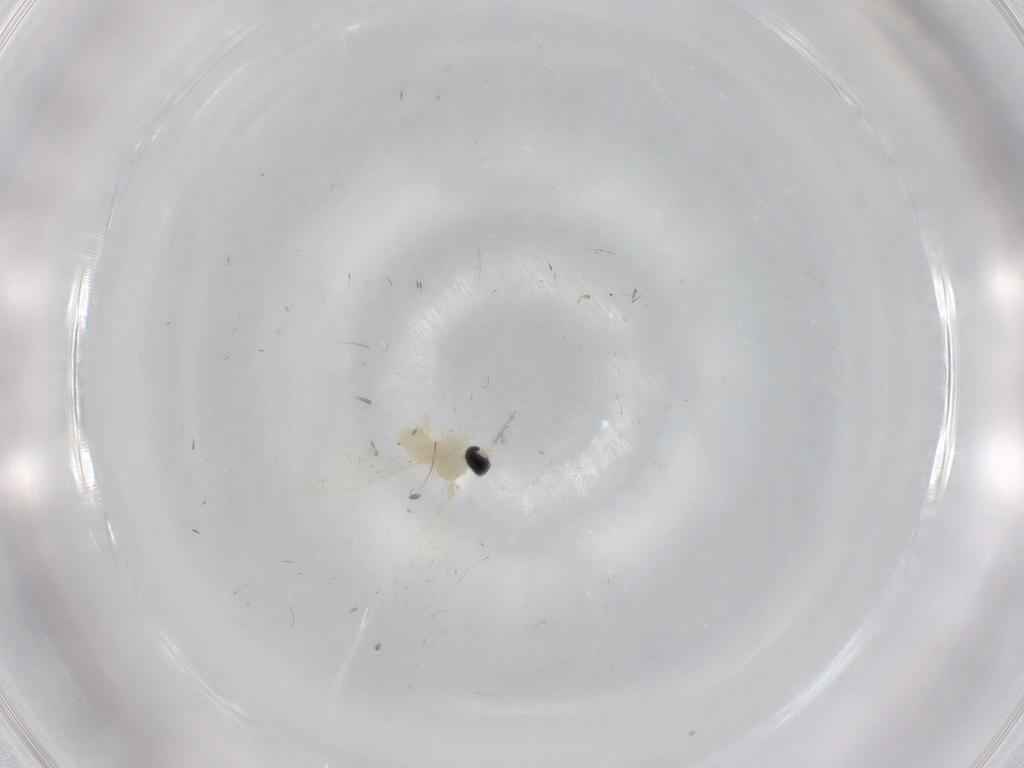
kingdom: Animalia
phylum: Arthropoda
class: Insecta
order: Diptera
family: Cecidomyiidae
